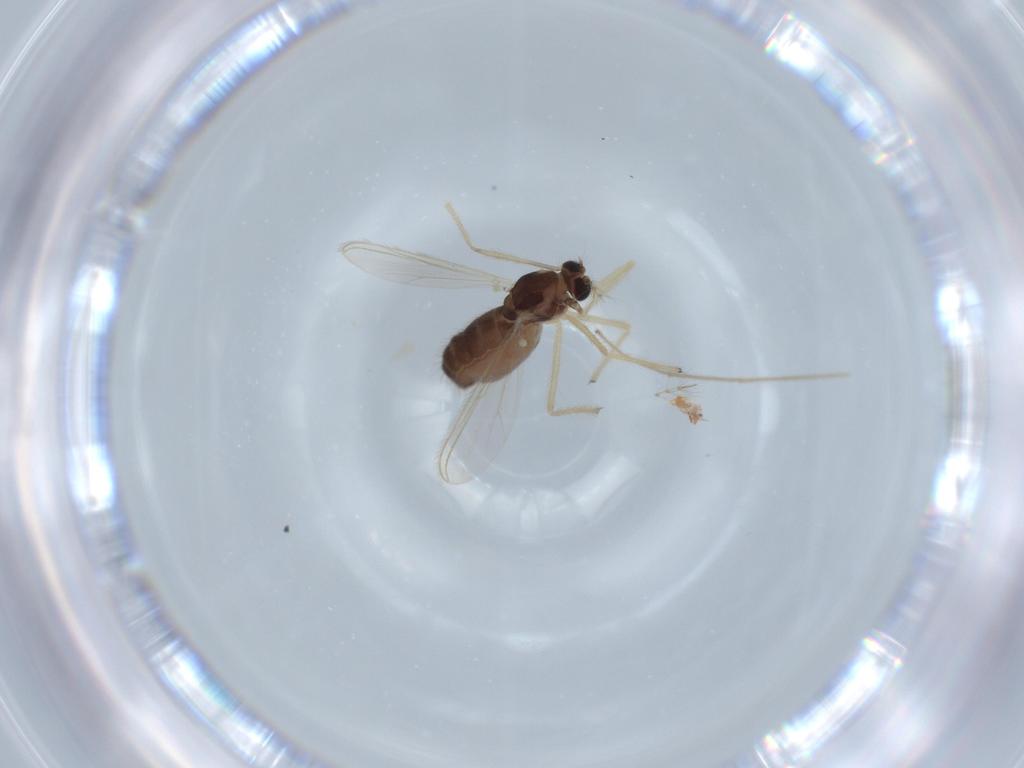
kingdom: Animalia
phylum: Arthropoda
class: Insecta
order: Diptera
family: Chironomidae
